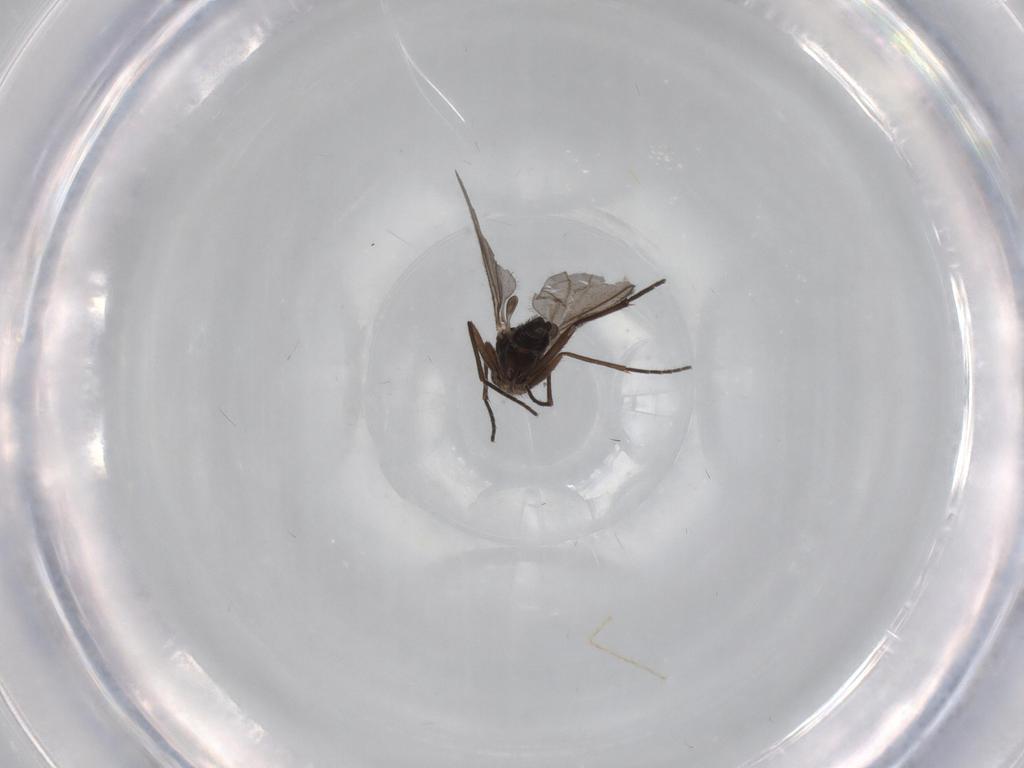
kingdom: Animalia
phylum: Arthropoda
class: Insecta
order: Diptera
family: Sciaridae
